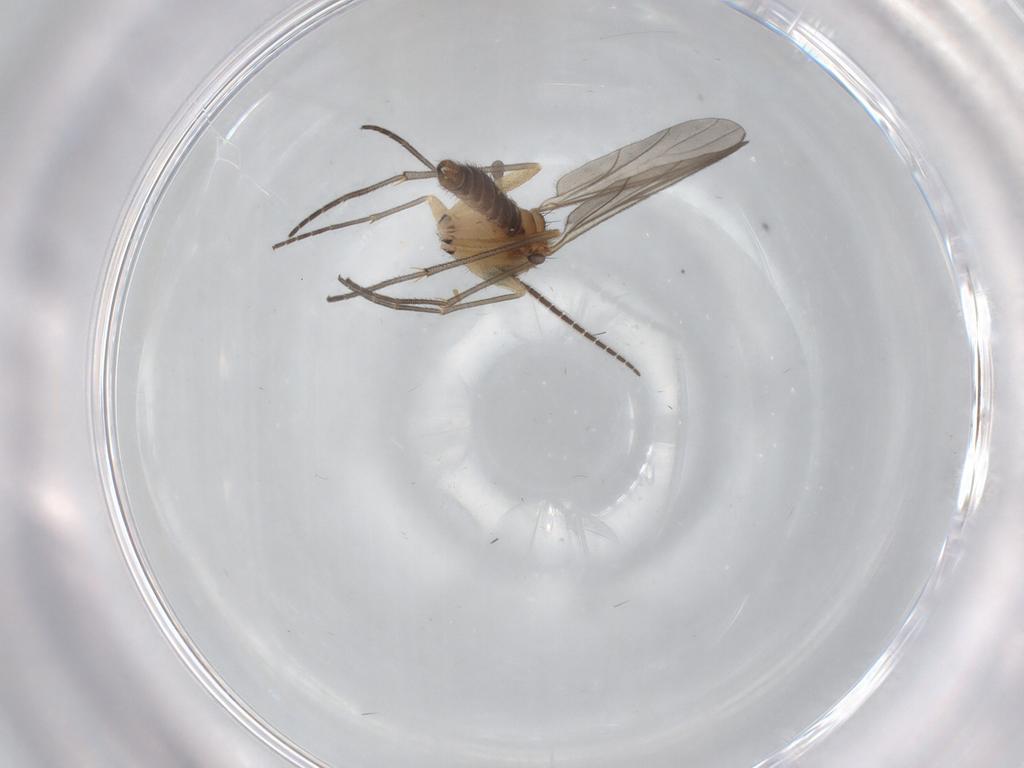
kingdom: Animalia
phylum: Arthropoda
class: Insecta
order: Diptera
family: Sciaridae
